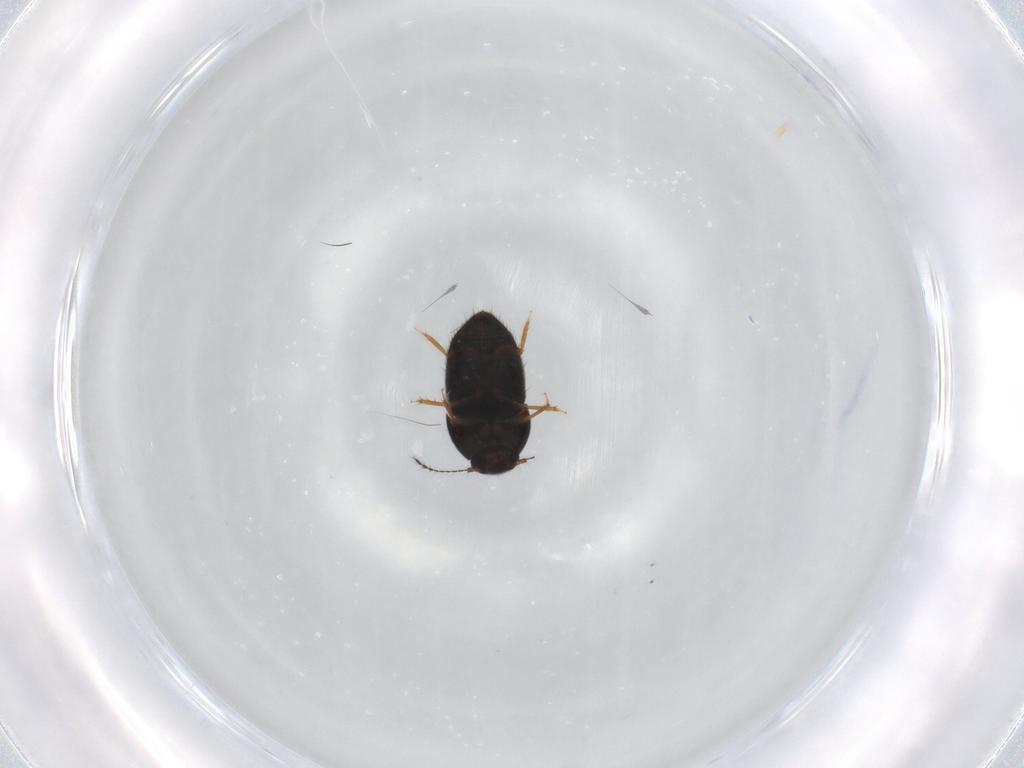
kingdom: Animalia
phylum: Arthropoda
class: Insecta
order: Coleoptera
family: Ptiliidae
